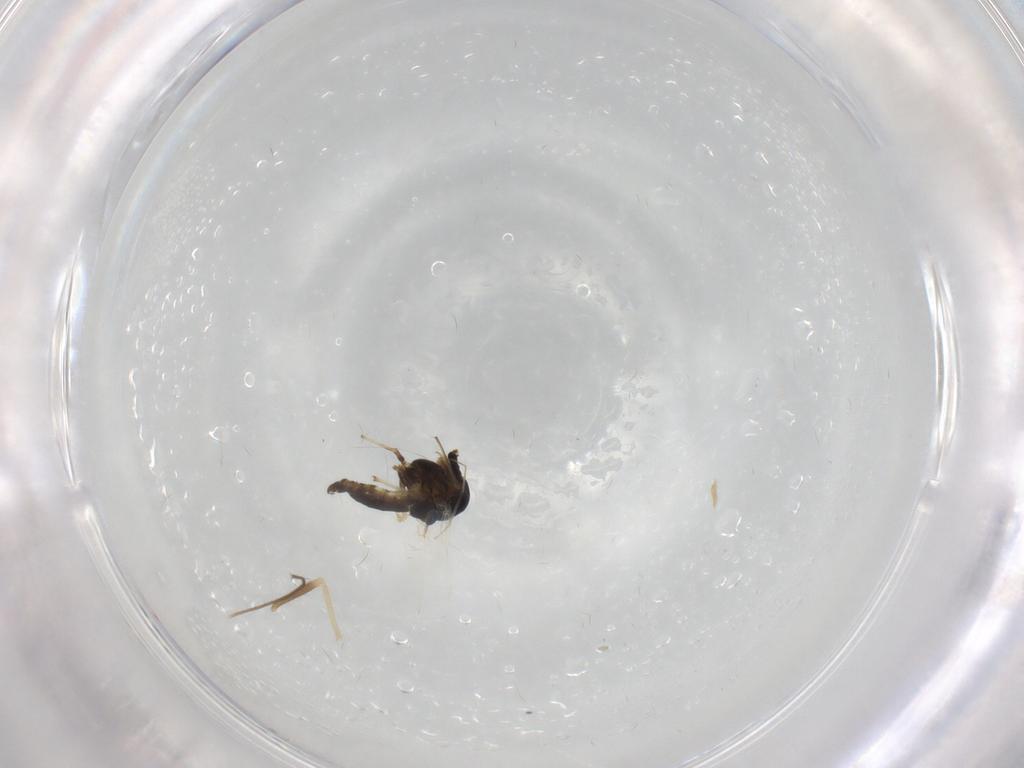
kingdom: Animalia
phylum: Arthropoda
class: Insecta
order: Diptera
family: Chironomidae
